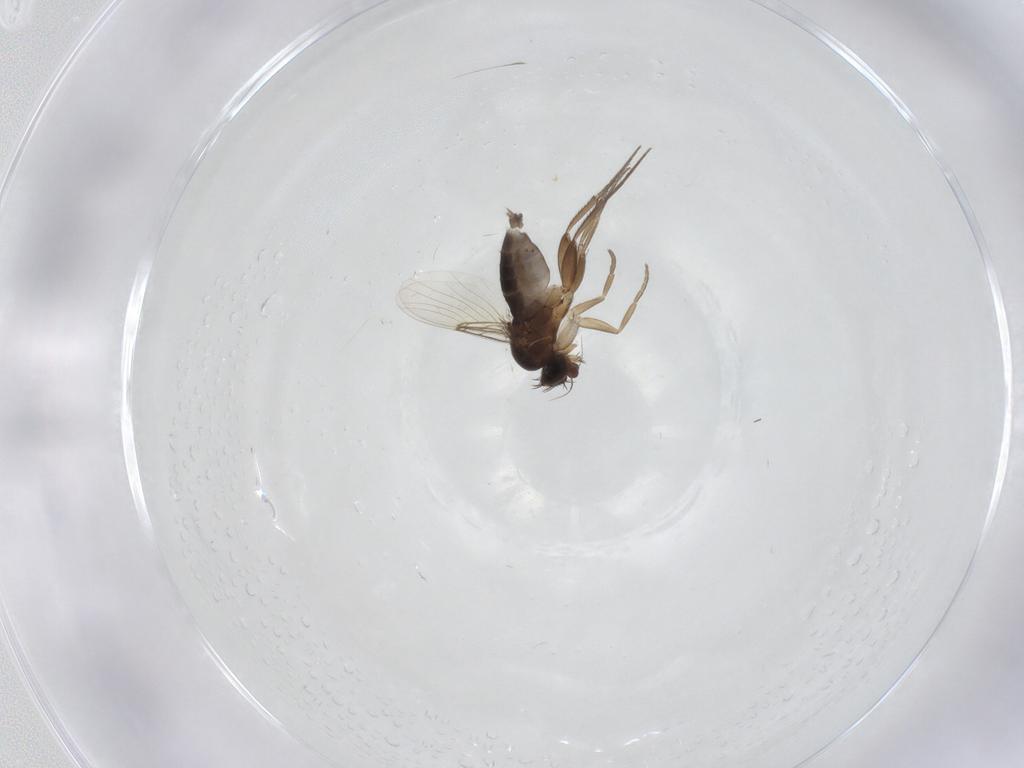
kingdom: Animalia
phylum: Arthropoda
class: Insecta
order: Diptera
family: Phoridae
